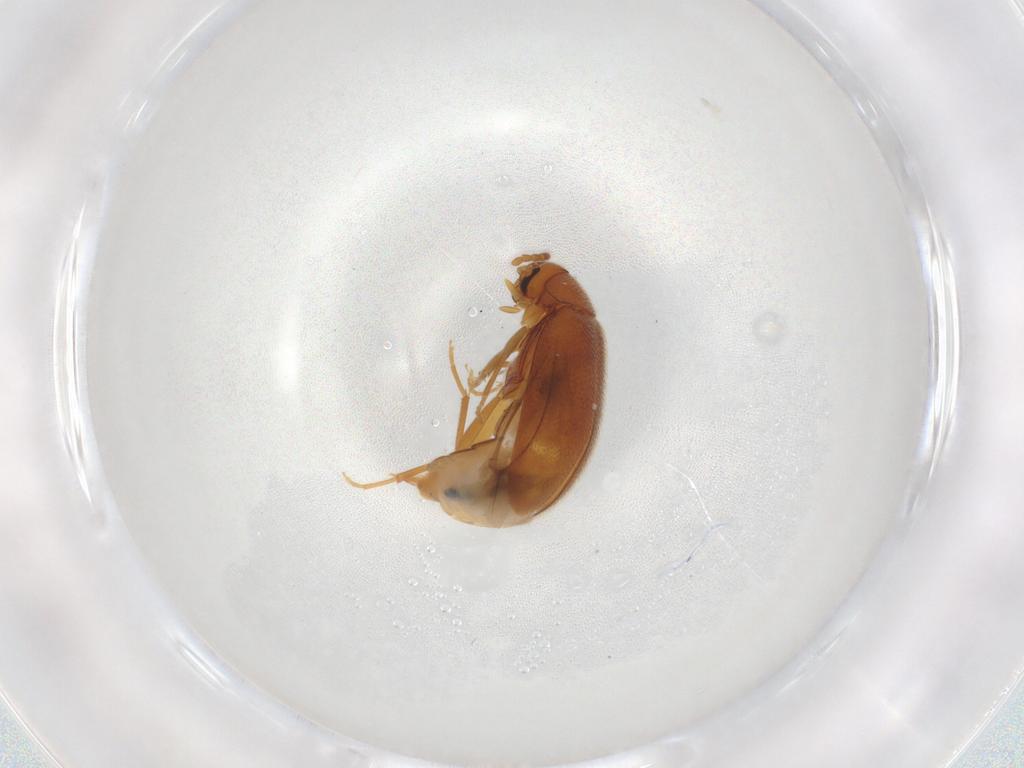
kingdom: Animalia
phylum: Arthropoda
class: Insecta
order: Coleoptera
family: Scraptiidae
